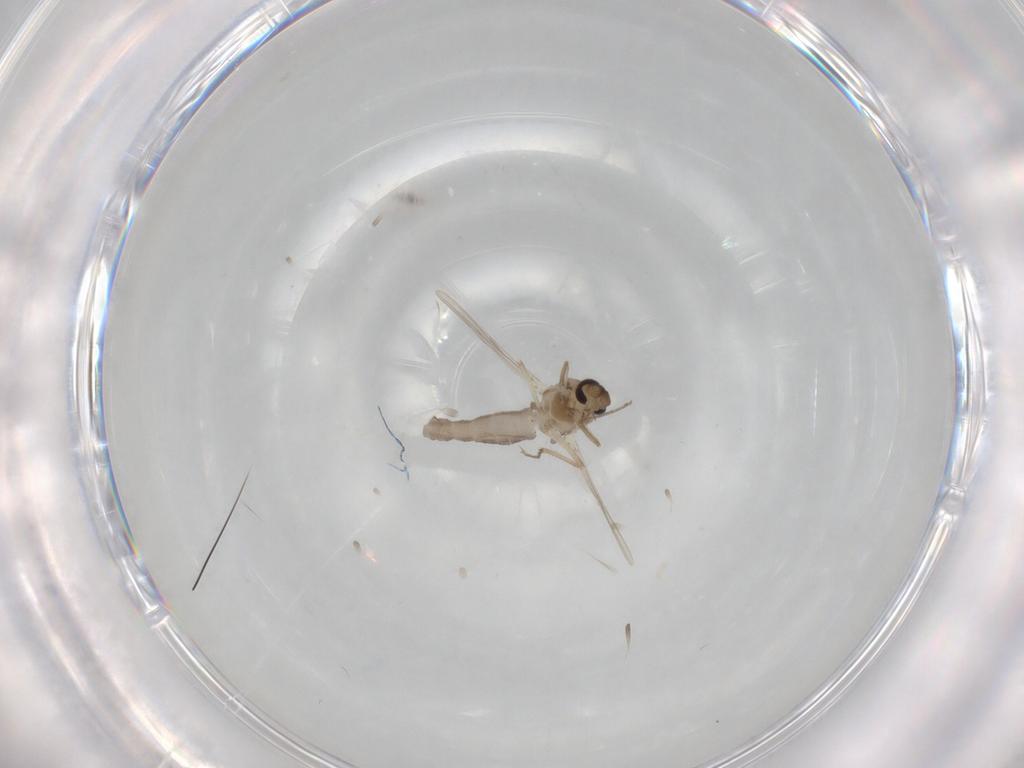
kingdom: Animalia
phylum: Arthropoda
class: Insecta
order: Diptera
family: Ceratopogonidae
